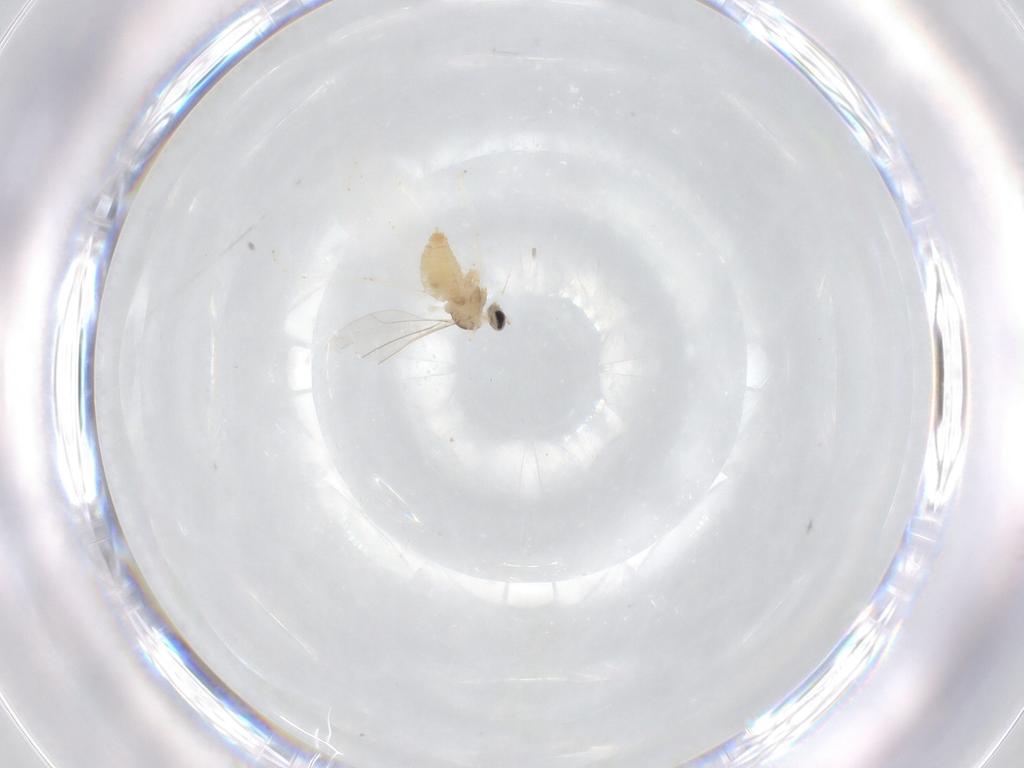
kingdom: Animalia
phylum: Arthropoda
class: Insecta
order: Diptera
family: Cecidomyiidae
